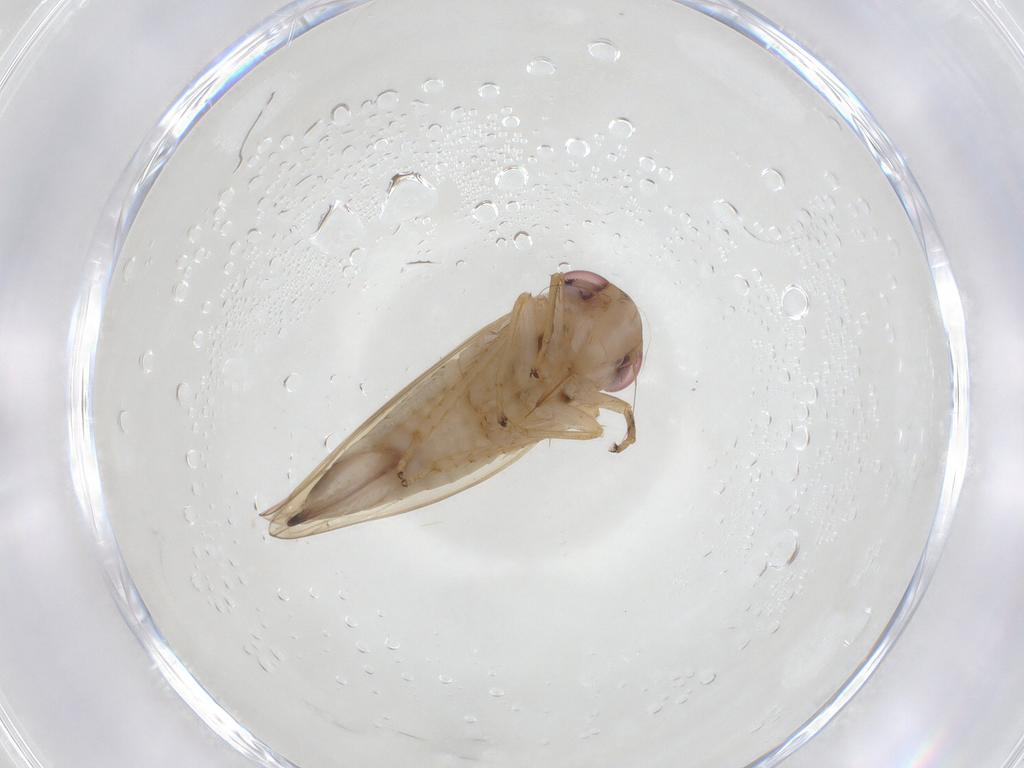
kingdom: Animalia
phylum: Arthropoda
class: Insecta
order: Hemiptera
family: Cicadellidae
